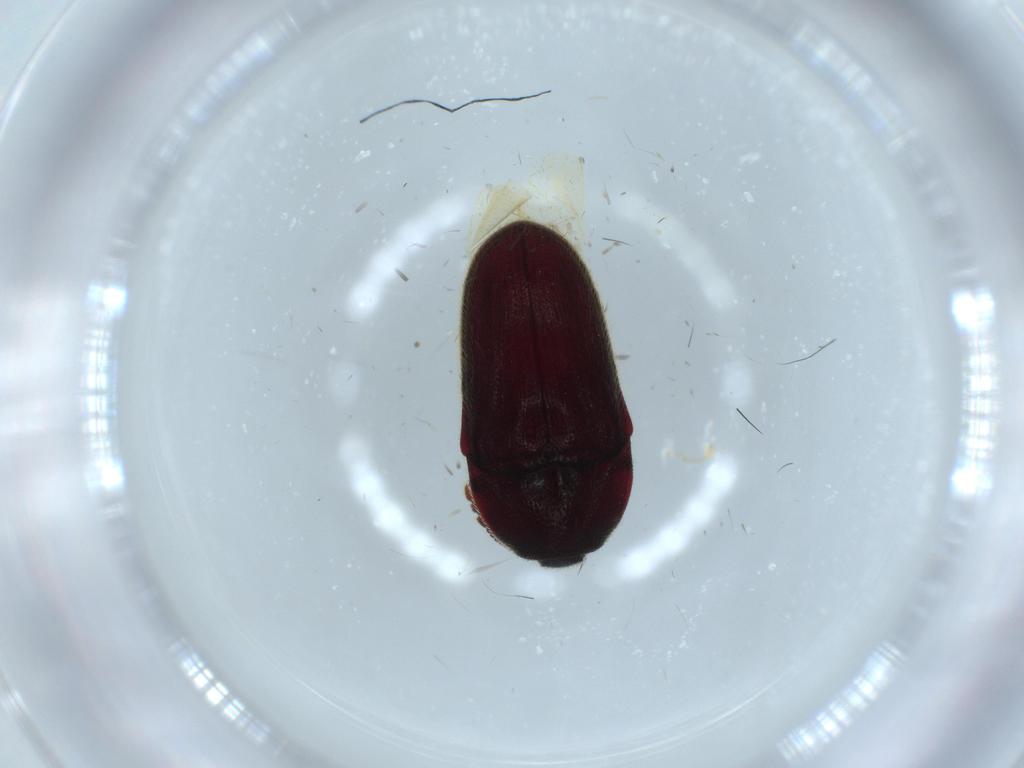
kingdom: Animalia
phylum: Arthropoda
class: Insecta
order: Coleoptera
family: Throscidae
